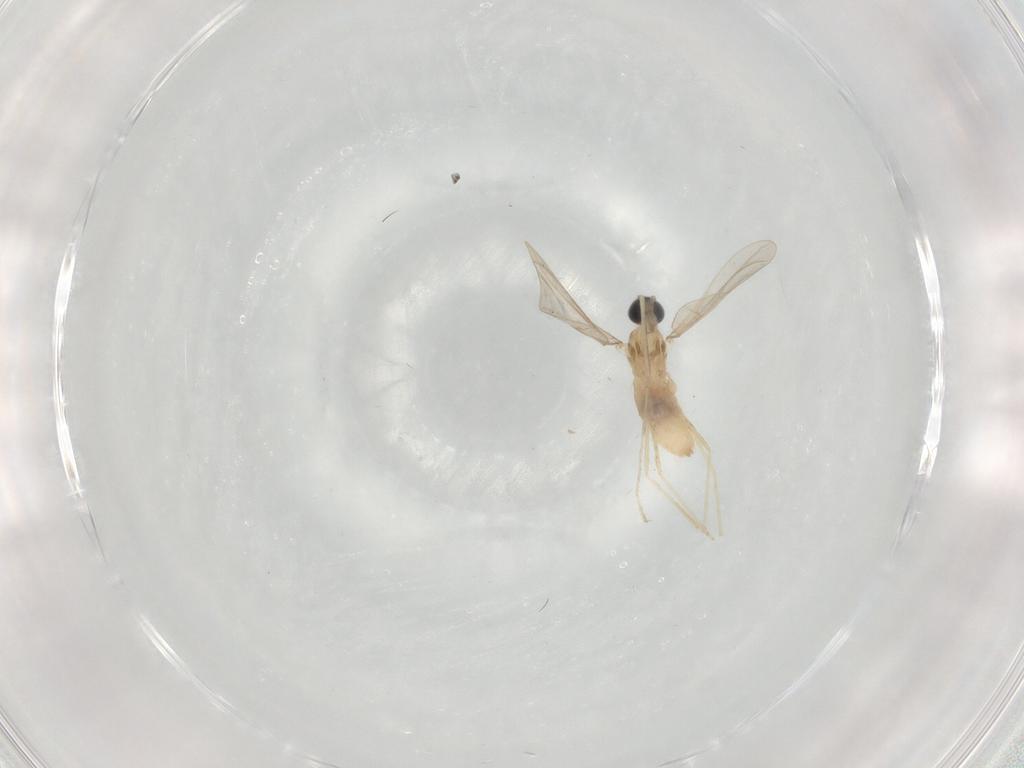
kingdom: Animalia
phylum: Arthropoda
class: Insecta
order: Diptera
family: Cecidomyiidae
